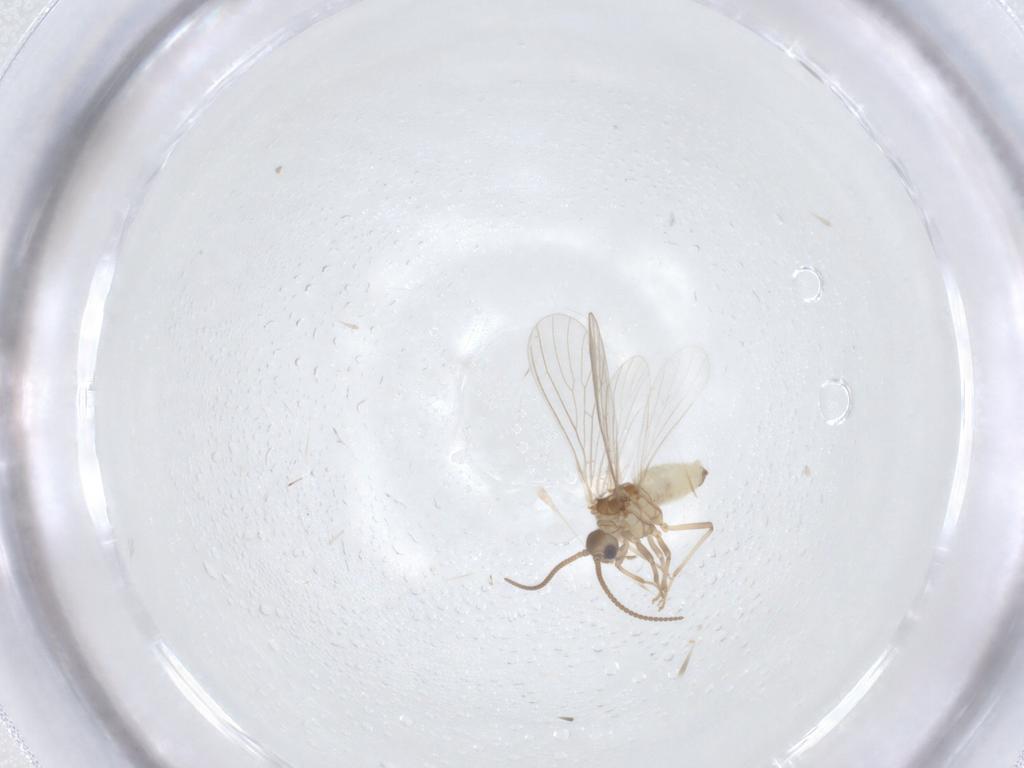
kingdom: Animalia
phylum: Arthropoda
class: Insecta
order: Neuroptera
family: Coniopterygidae
